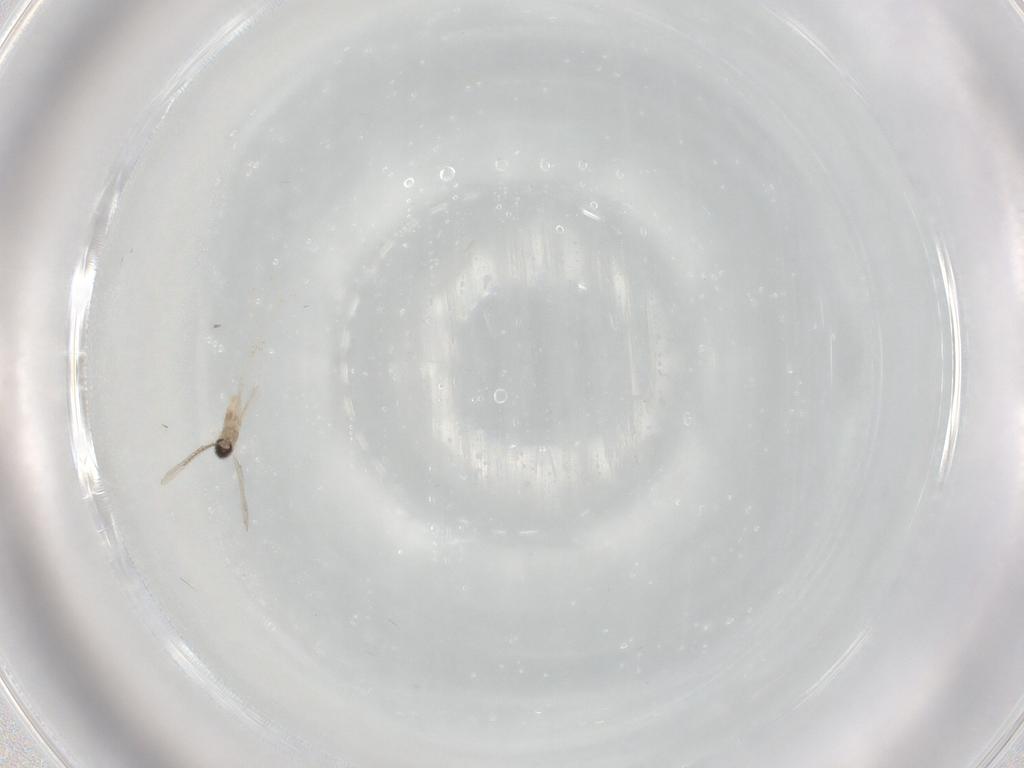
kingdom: Animalia
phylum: Arthropoda
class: Insecta
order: Diptera
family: Cecidomyiidae
